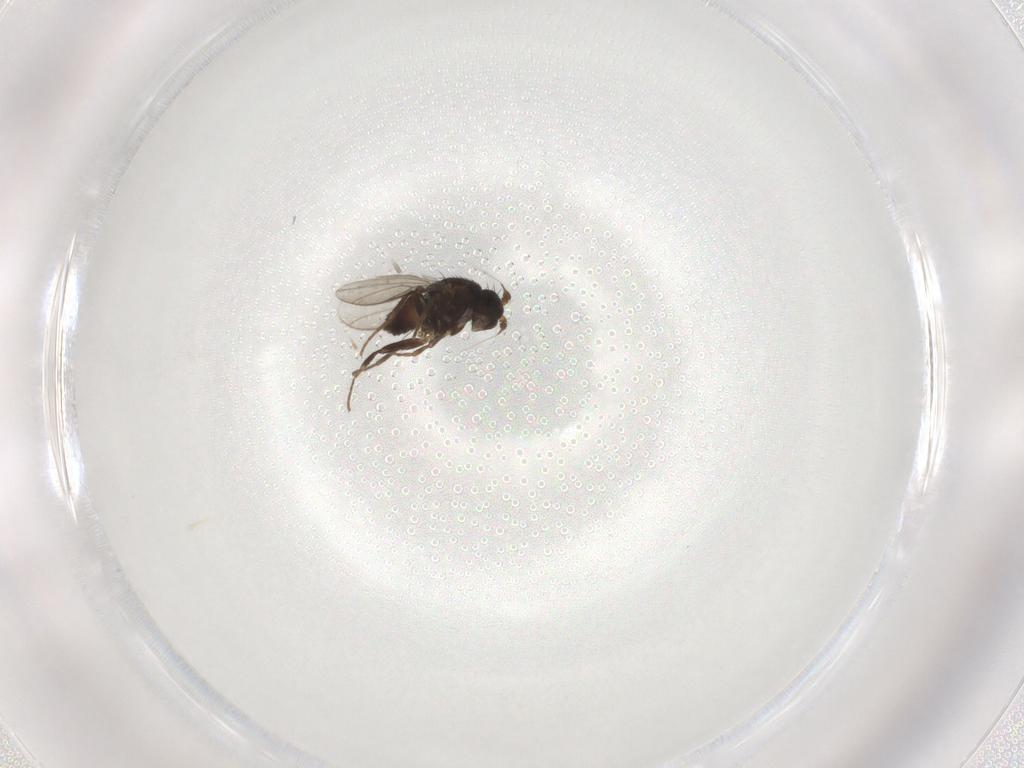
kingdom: Animalia
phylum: Arthropoda
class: Insecta
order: Diptera
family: Sphaeroceridae
